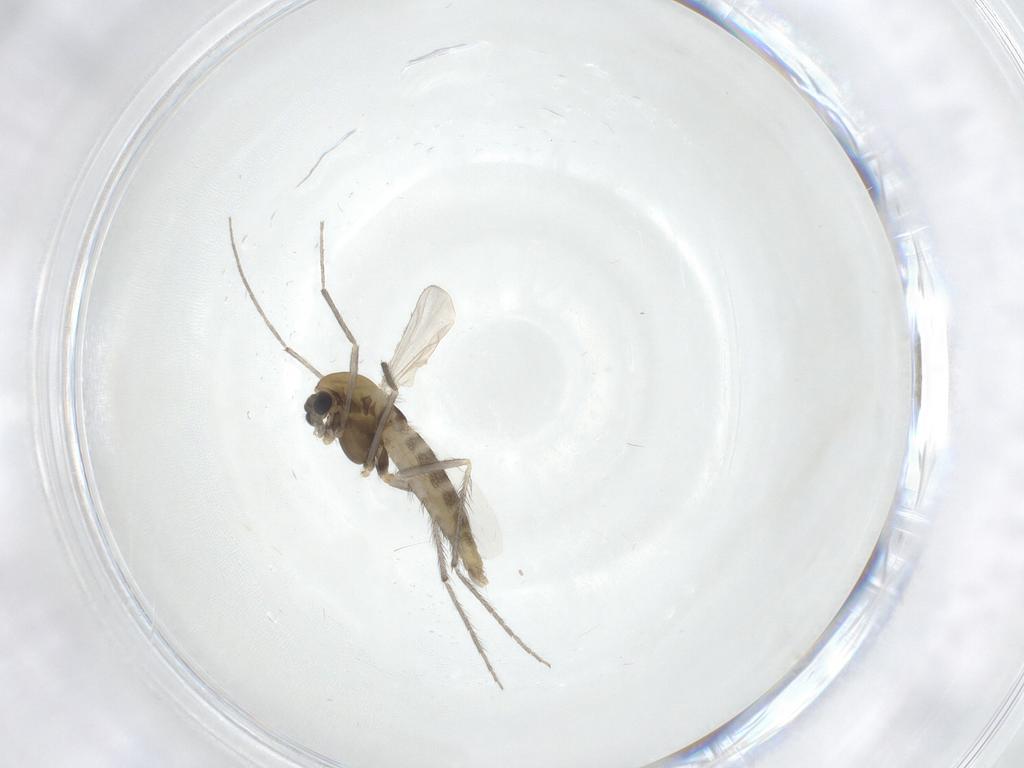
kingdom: Animalia
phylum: Arthropoda
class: Insecta
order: Diptera
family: Chironomidae
